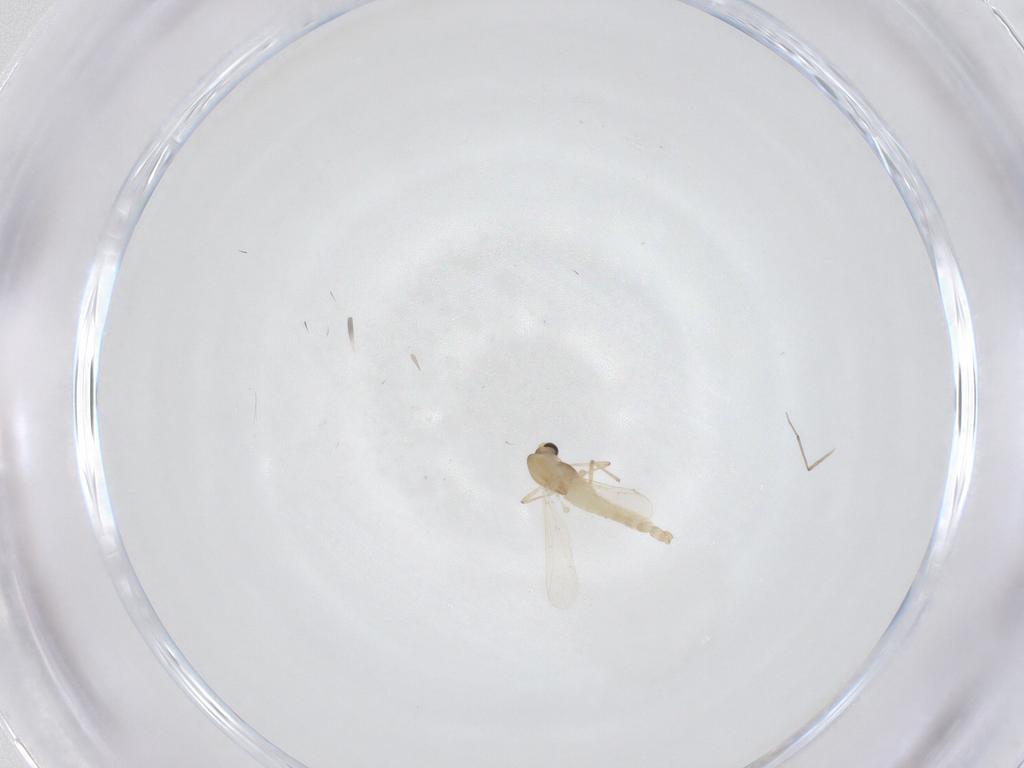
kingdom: Animalia
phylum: Arthropoda
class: Insecta
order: Diptera
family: Chironomidae
